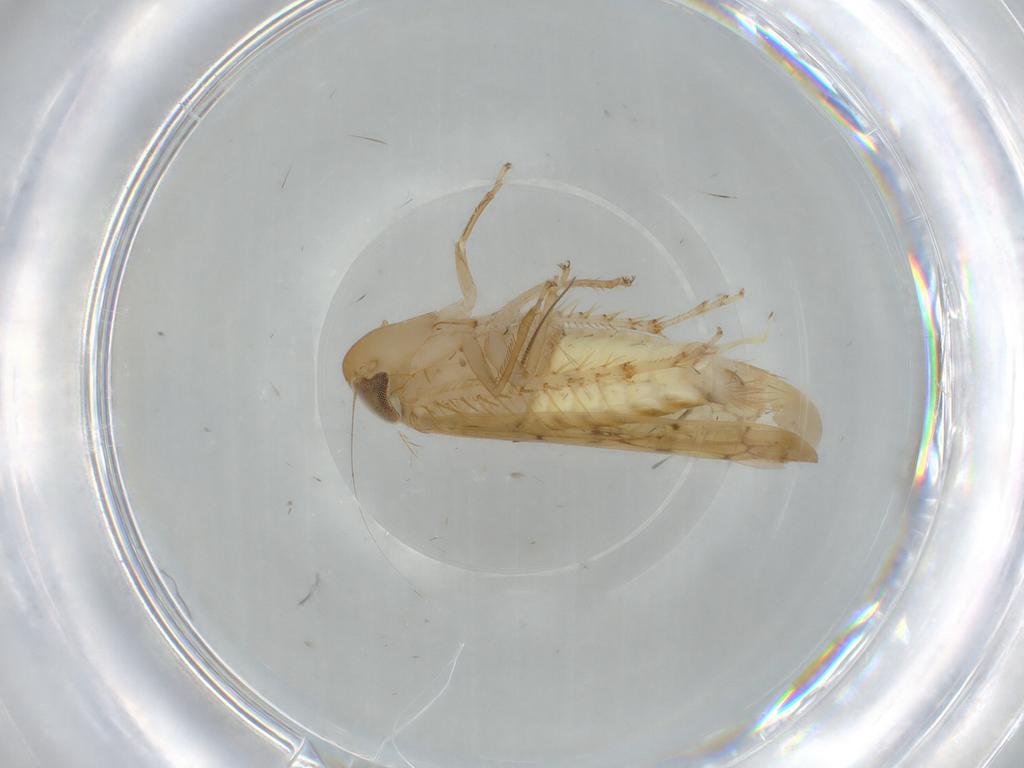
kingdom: Animalia
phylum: Arthropoda
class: Insecta
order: Hemiptera
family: Cicadellidae
